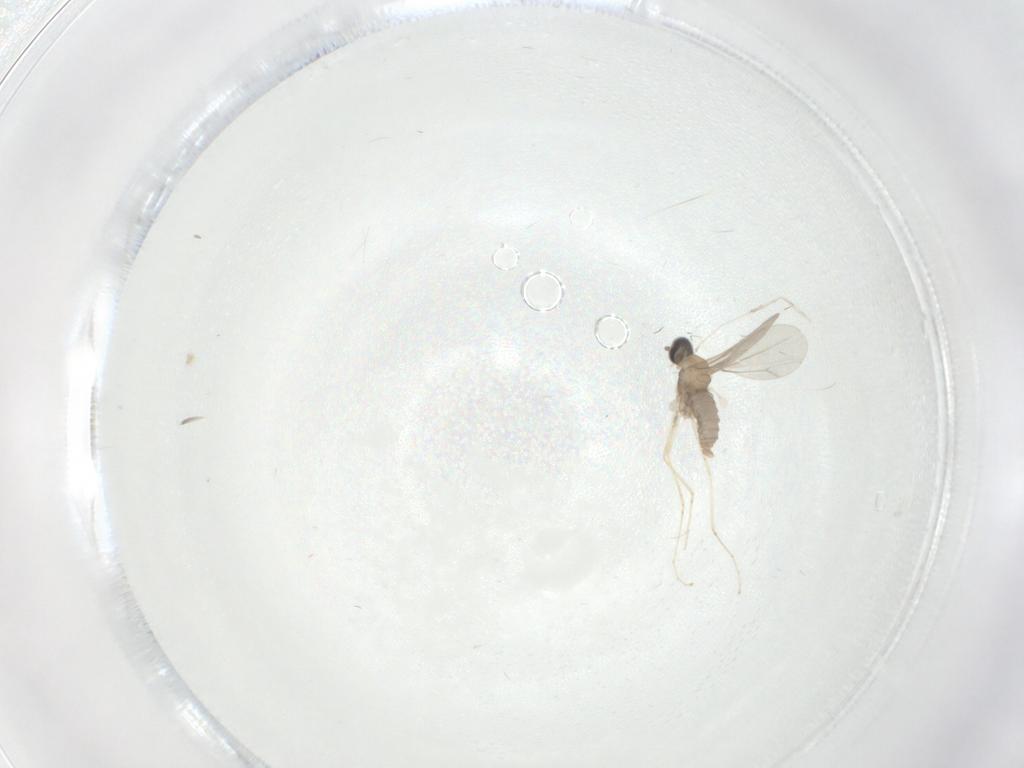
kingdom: Animalia
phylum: Arthropoda
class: Insecta
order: Diptera
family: Cecidomyiidae
